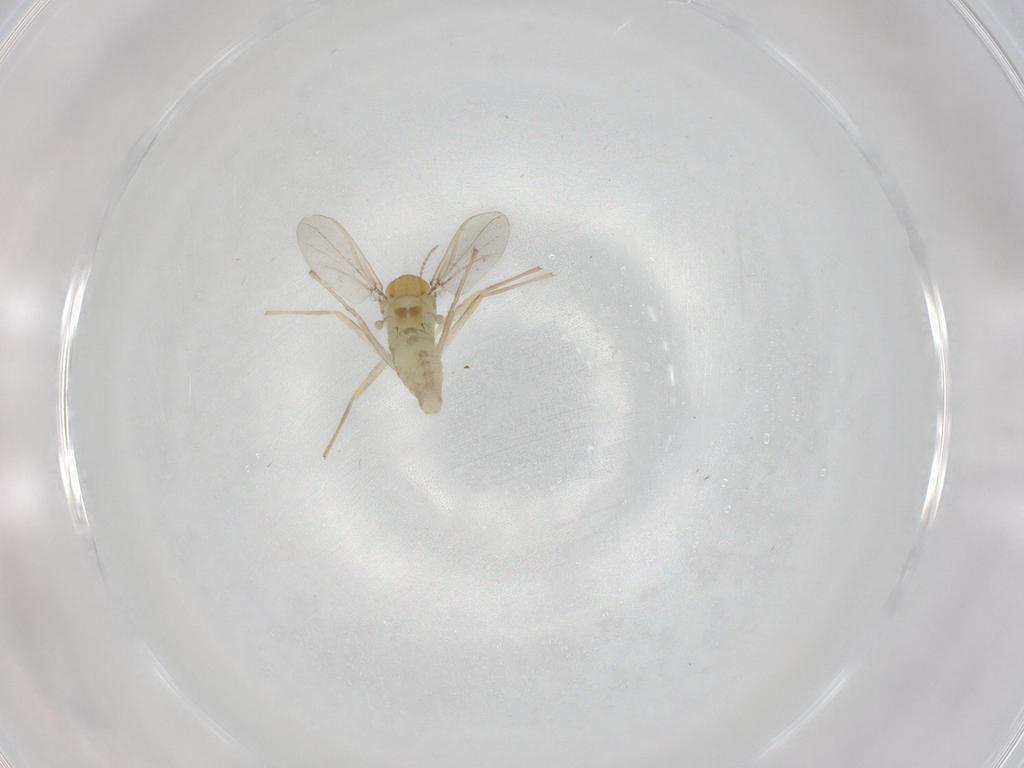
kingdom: Animalia
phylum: Arthropoda
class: Insecta
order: Diptera
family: Chironomidae
